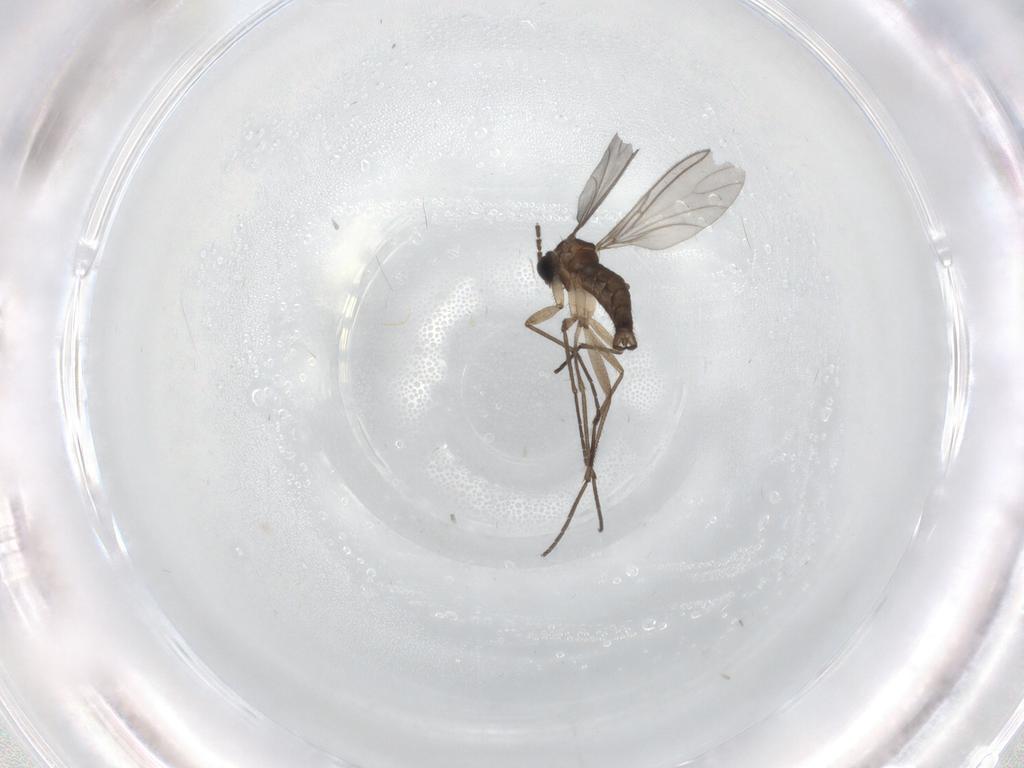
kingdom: Animalia
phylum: Arthropoda
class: Insecta
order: Diptera
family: Sciaridae
